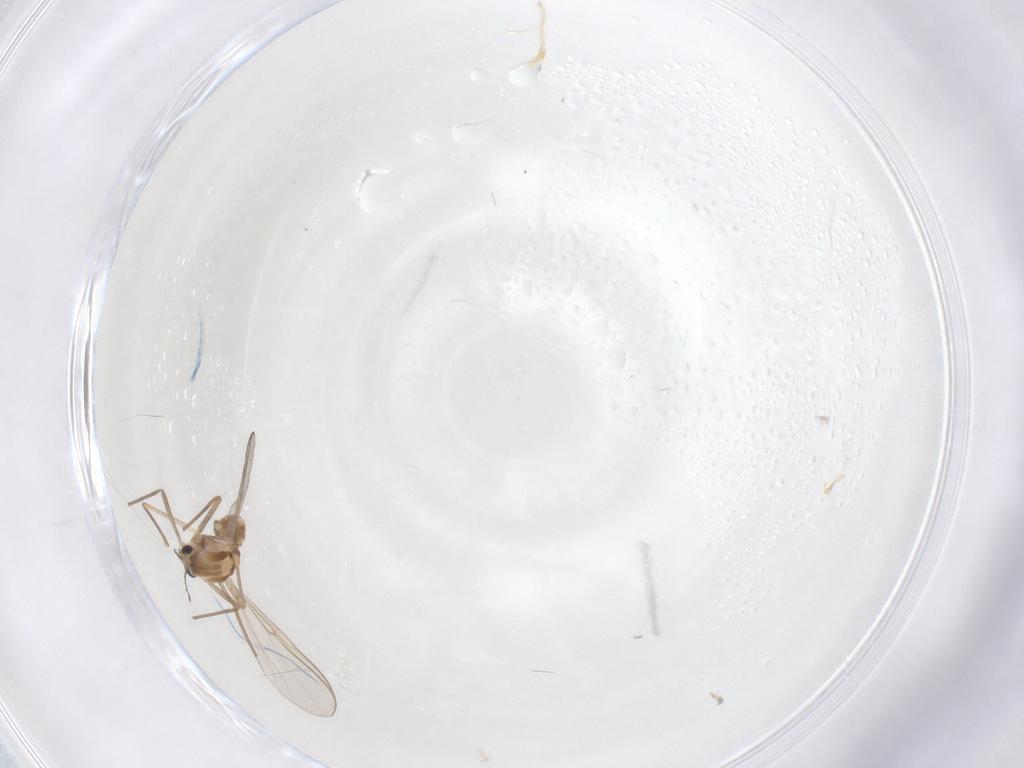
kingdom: Animalia
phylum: Arthropoda
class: Insecta
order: Diptera
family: Chironomidae
